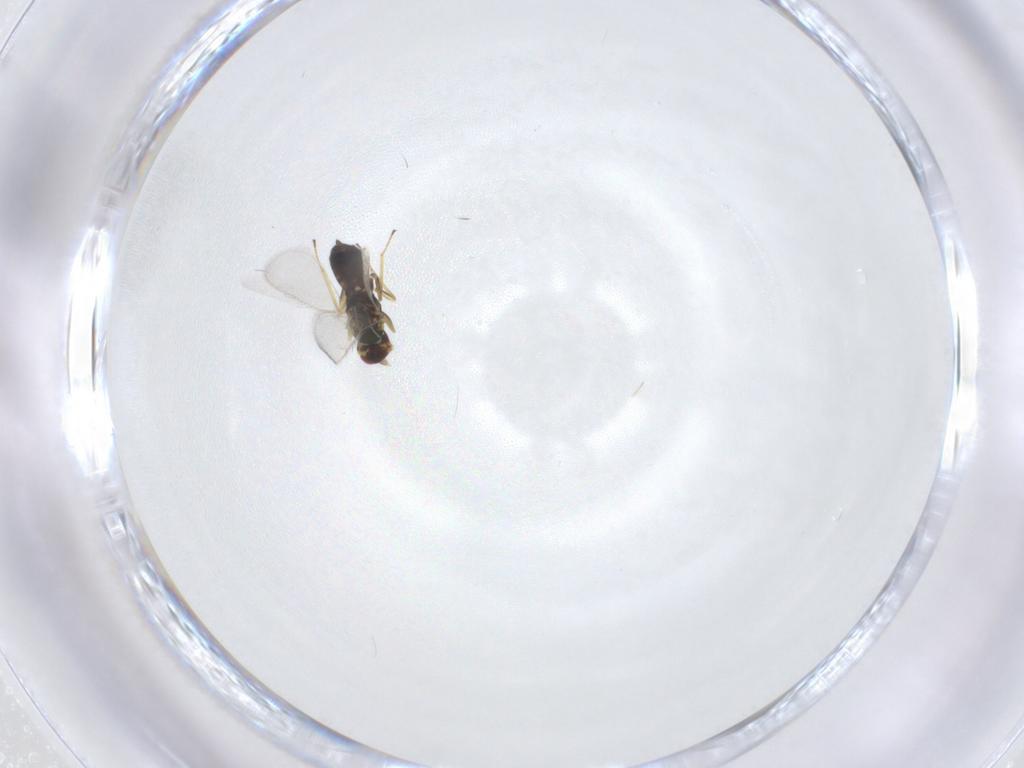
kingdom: Animalia
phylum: Arthropoda
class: Insecta
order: Hymenoptera
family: Eulophidae
